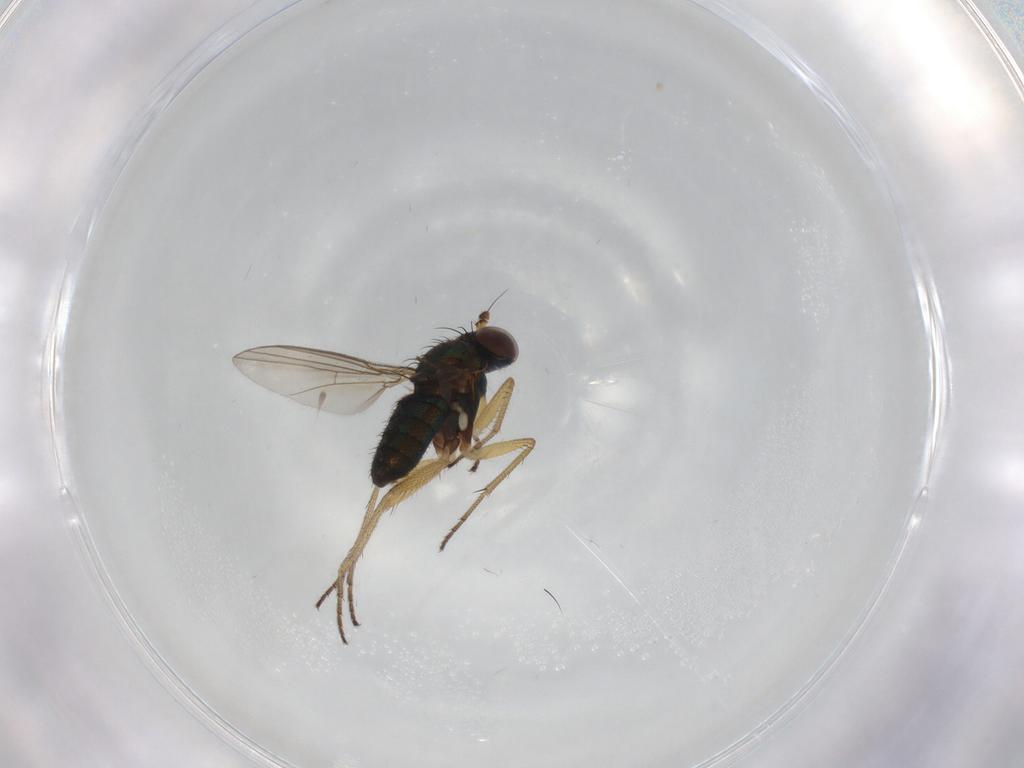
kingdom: Animalia
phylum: Arthropoda
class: Insecta
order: Diptera
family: Dolichopodidae
